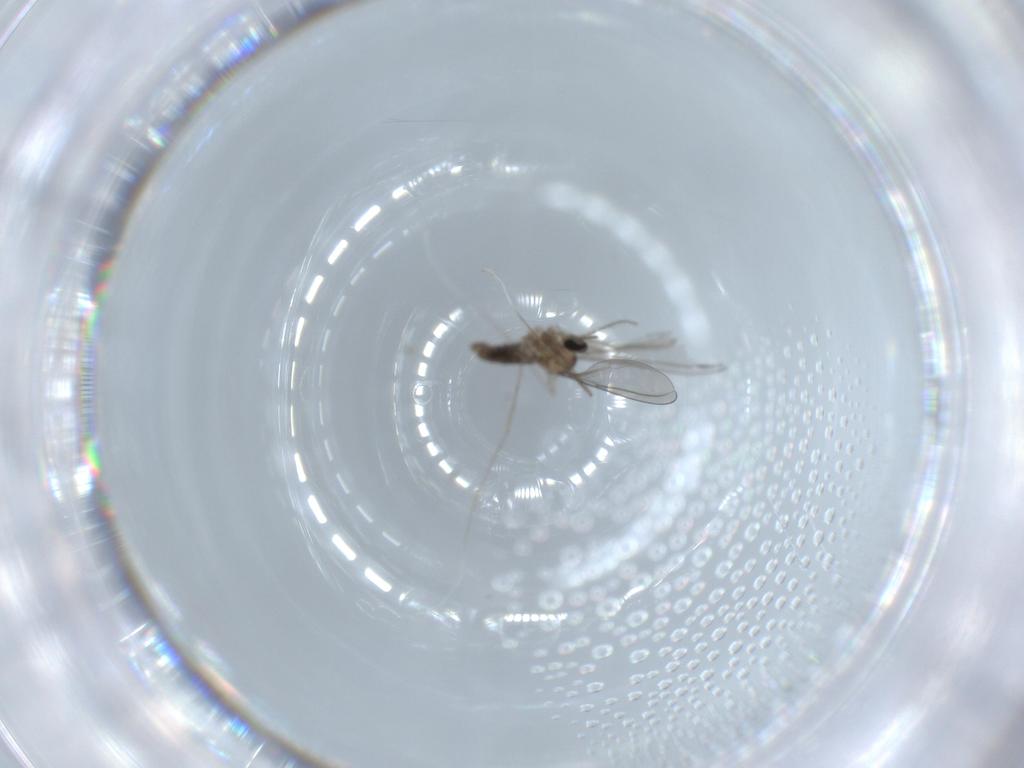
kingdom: Animalia
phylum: Arthropoda
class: Insecta
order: Diptera
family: Cecidomyiidae
